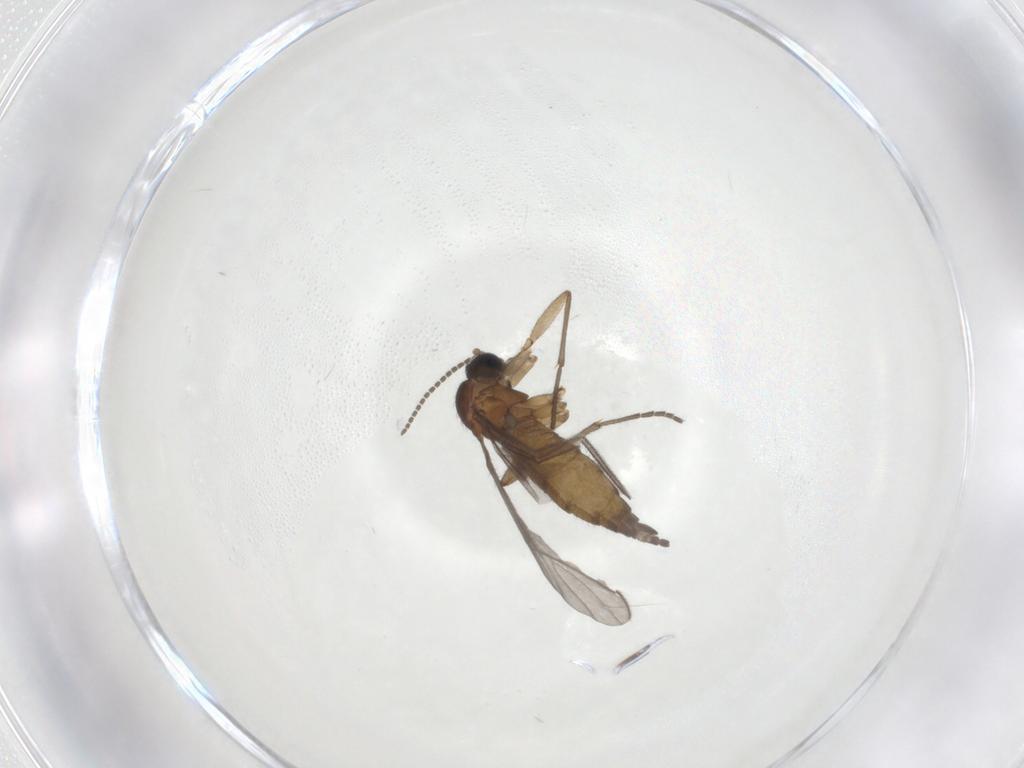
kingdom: Animalia
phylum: Arthropoda
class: Insecta
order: Diptera
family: Sciaridae
